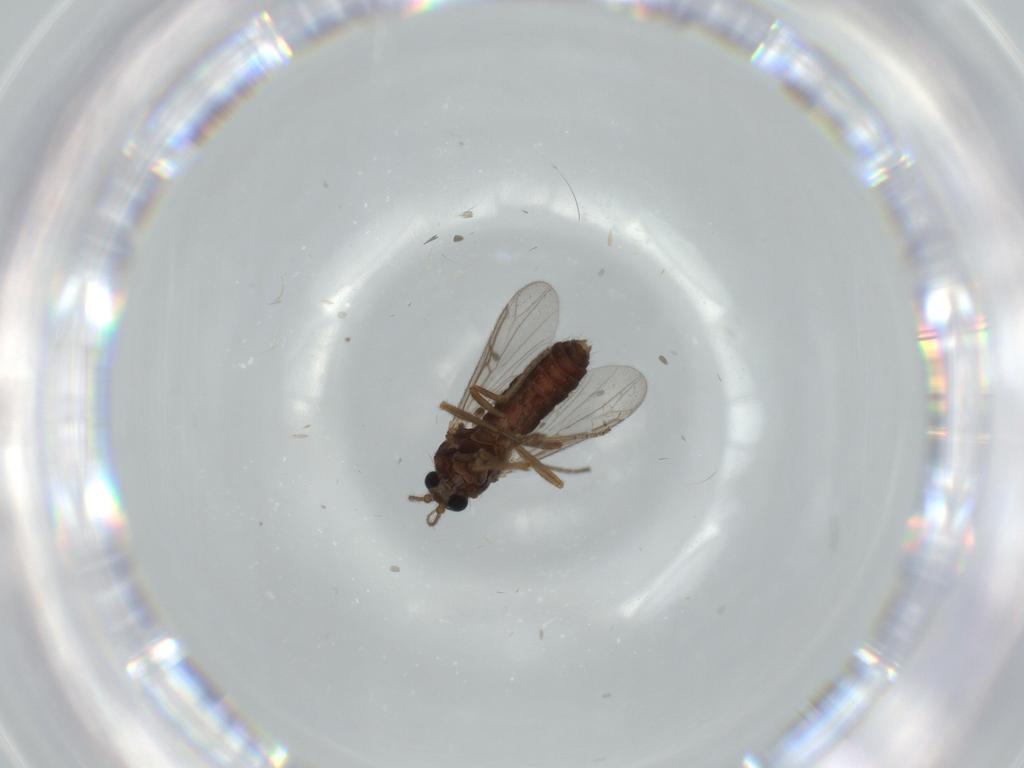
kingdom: Animalia
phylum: Arthropoda
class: Insecta
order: Diptera
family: Ceratopogonidae
